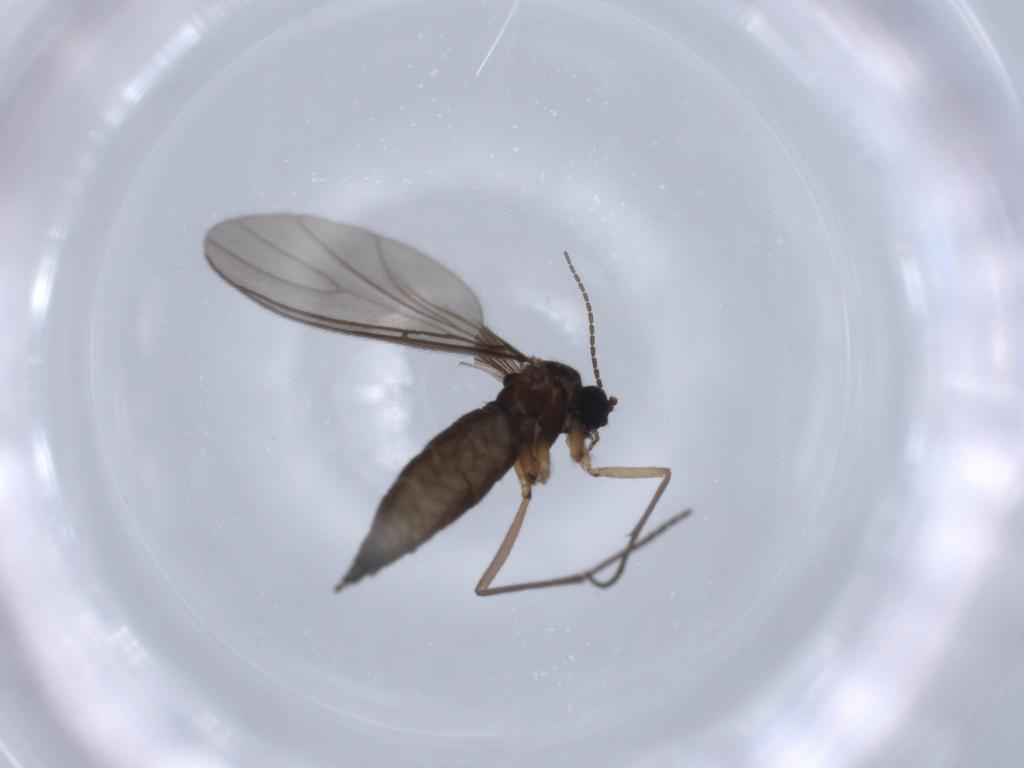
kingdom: Animalia
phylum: Arthropoda
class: Insecta
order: Diptera
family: Sciaridae
